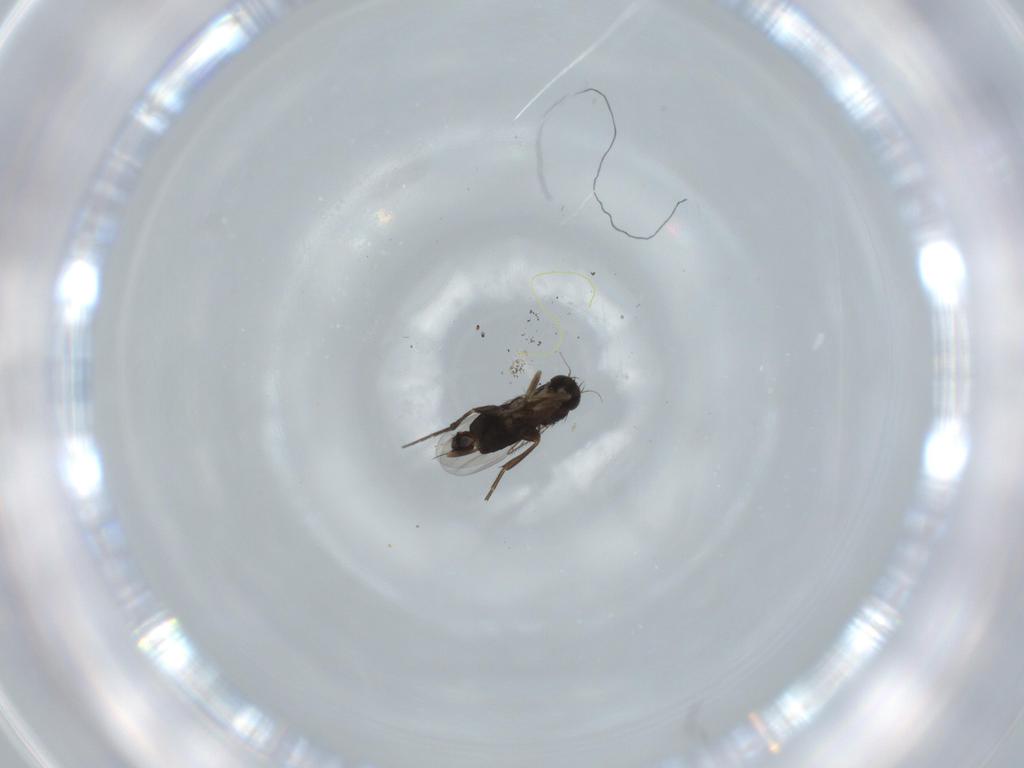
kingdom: Animalia
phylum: Arthropoda
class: Insecta
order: Diptera
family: Phoridae
